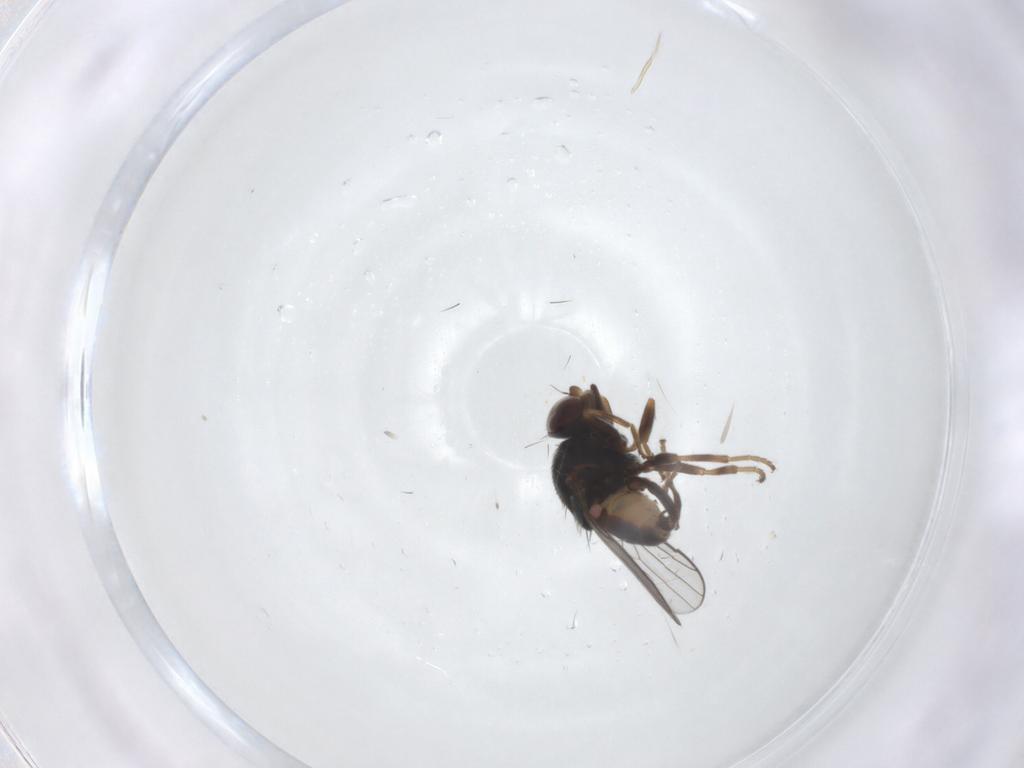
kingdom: Animalia
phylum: Arthropoda
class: Insecta
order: Diptera
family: Chloropidae
